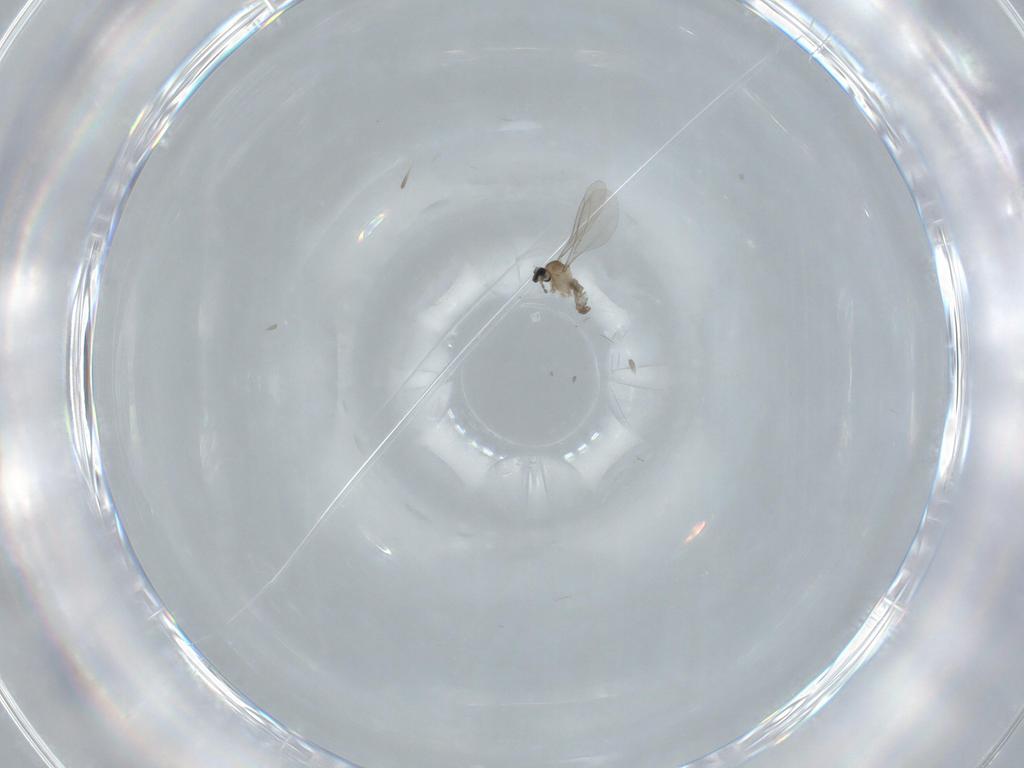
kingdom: Animalia
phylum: Arthropoda
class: Insecta
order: Diptera
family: Cecidomyiidae
